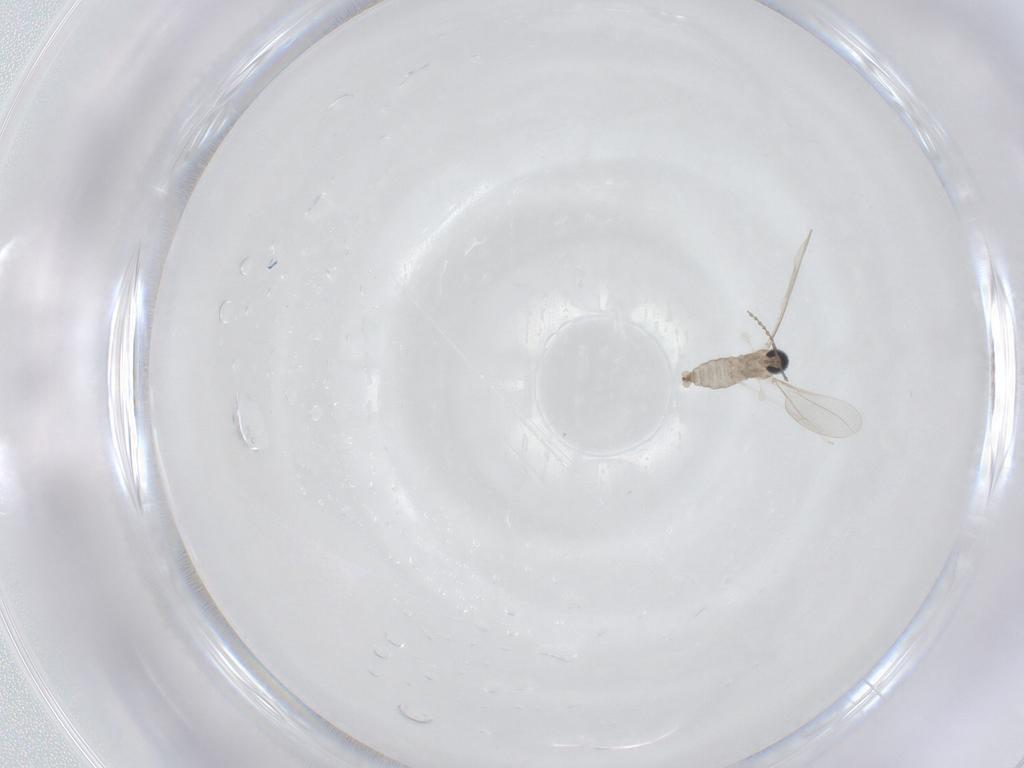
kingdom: Animalia
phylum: Arthropoda
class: Insecta
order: Diptera
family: Cecidomyiidae
